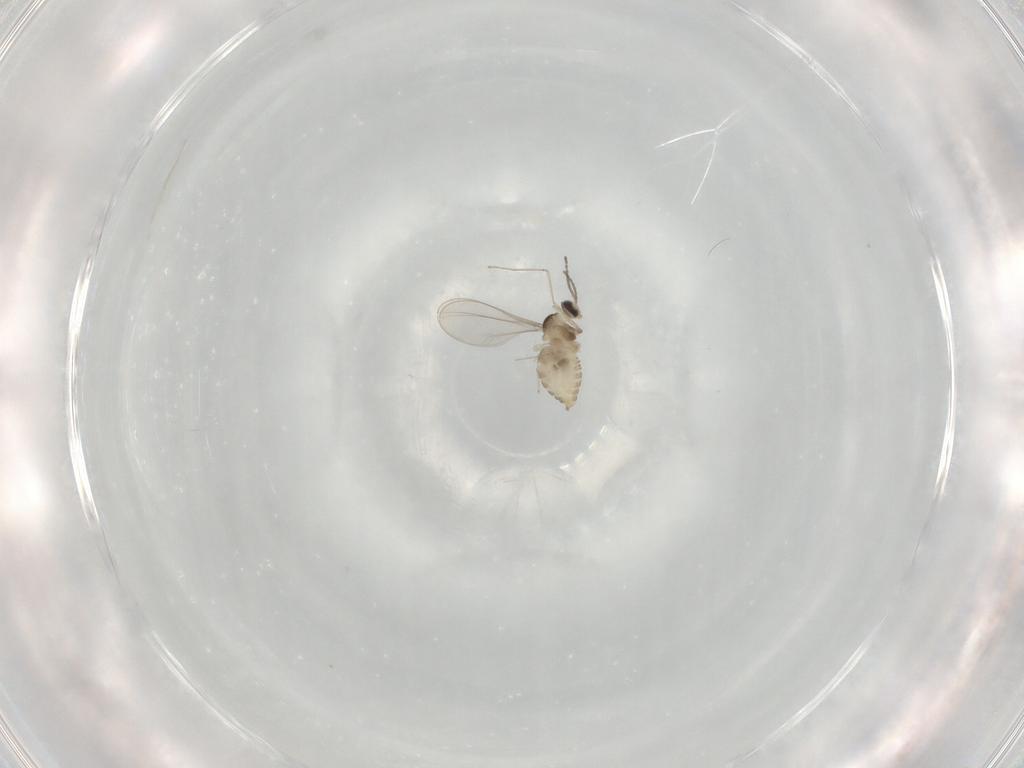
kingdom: Animalia
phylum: Arthropoda
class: Insecta
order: Diptera
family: Cecidomyiidae
